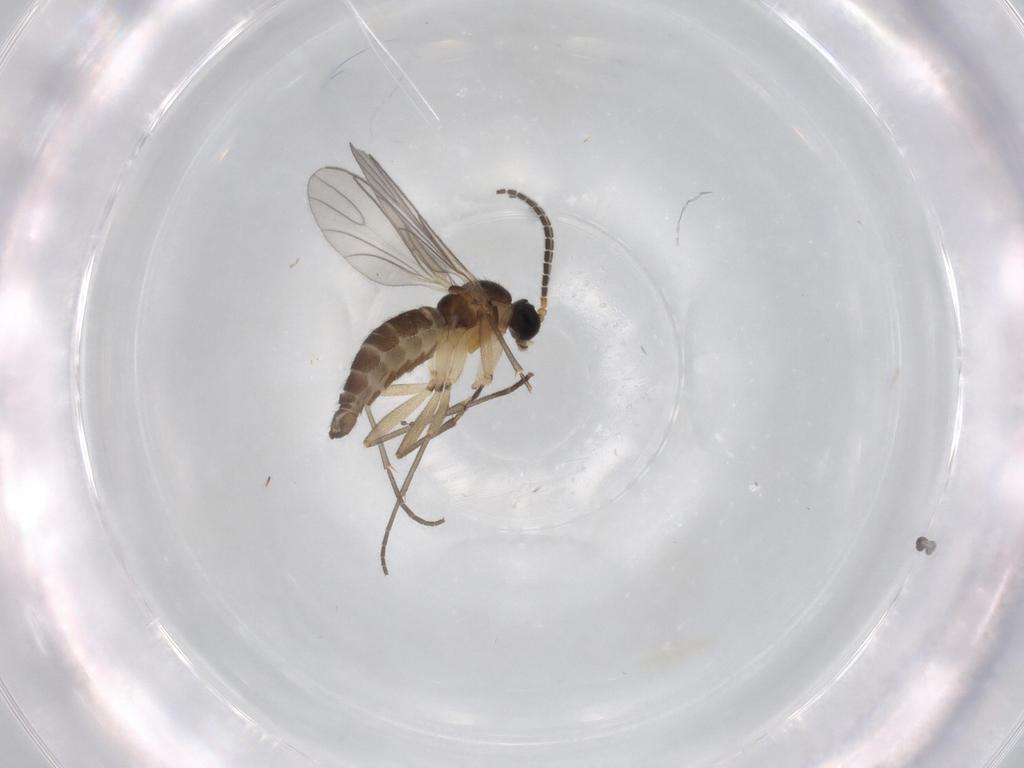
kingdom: Animalia
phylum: Arthropoda
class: Insecta
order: Diptera
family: Sciaridae
